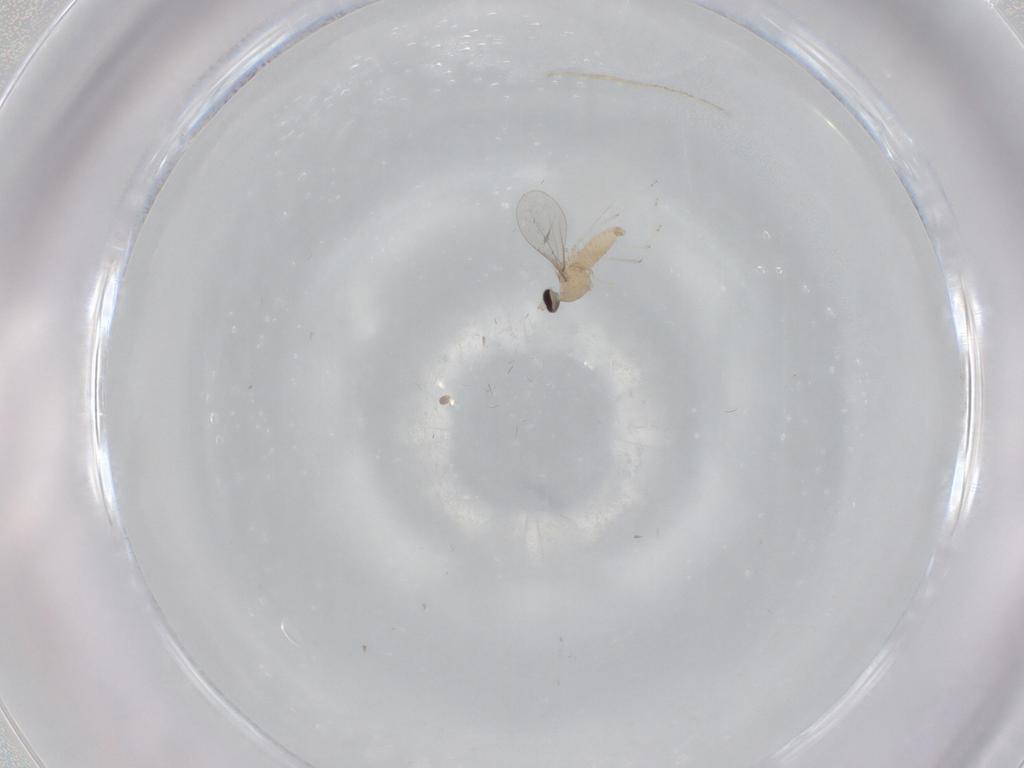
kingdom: Animalia
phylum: Arthropoda
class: Insecta
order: Diptera
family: Cecidomyiidae
